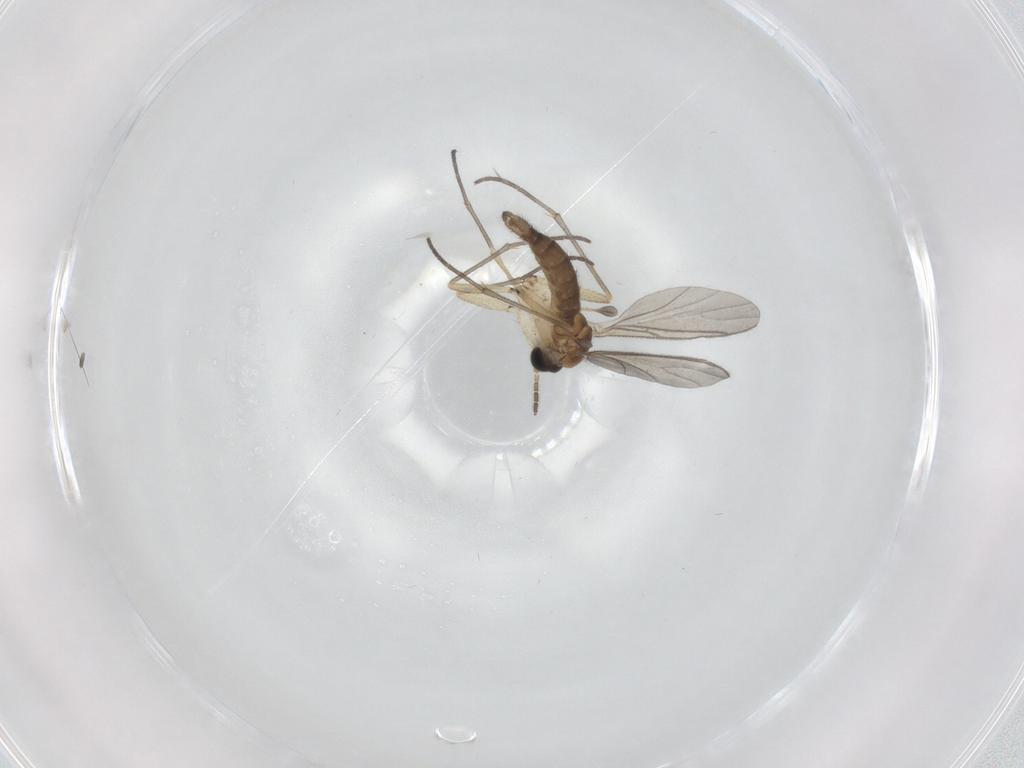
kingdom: Animalia
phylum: Arthropoda
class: Insecta
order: Diptera
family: Sciaridae
